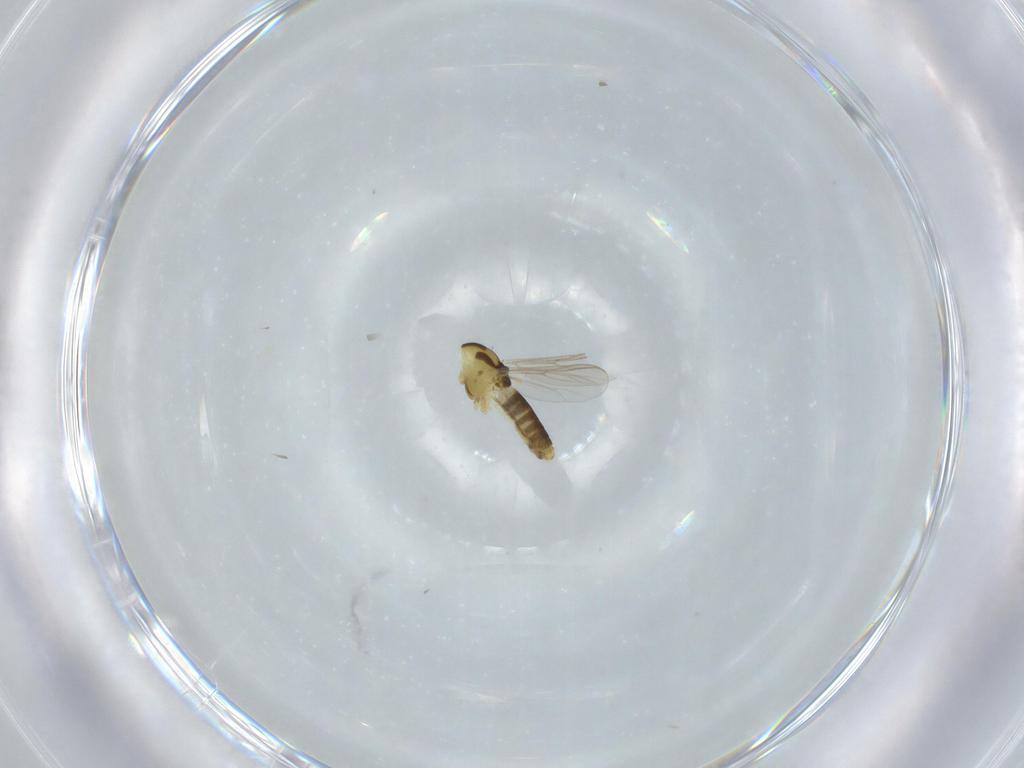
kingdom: Animalia
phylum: Arthropoda
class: Insecta
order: Diptera
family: Chironomidae
